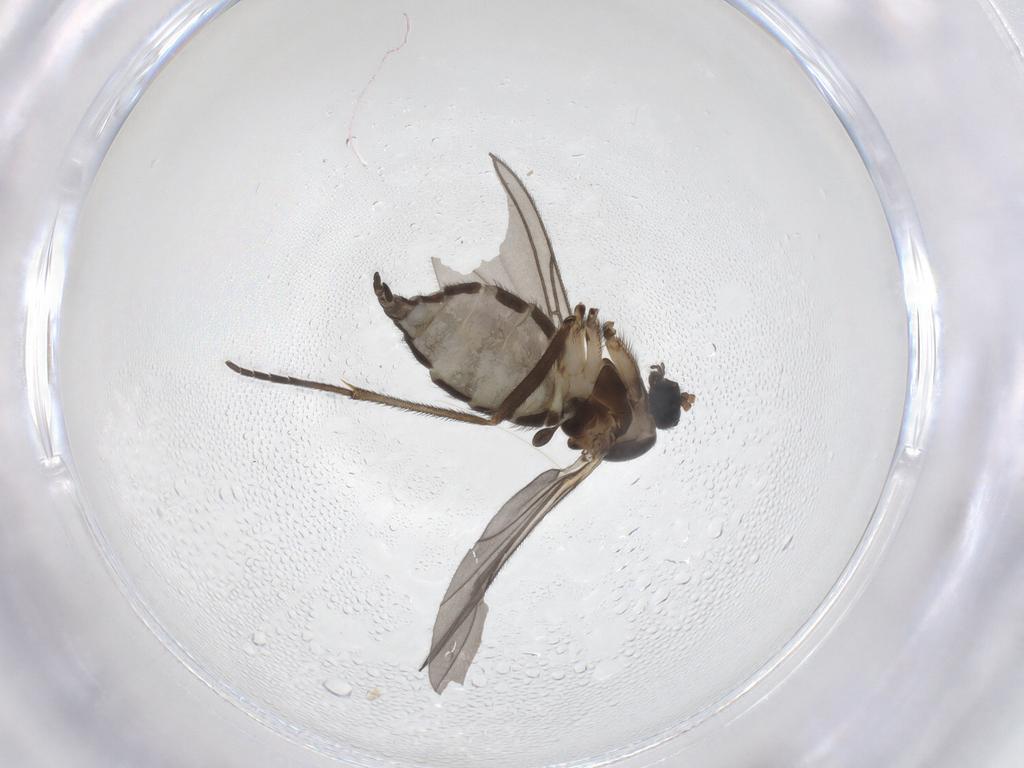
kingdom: Animalia
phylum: Arthropoda
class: Insecta
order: Diptera
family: Sciaridae
